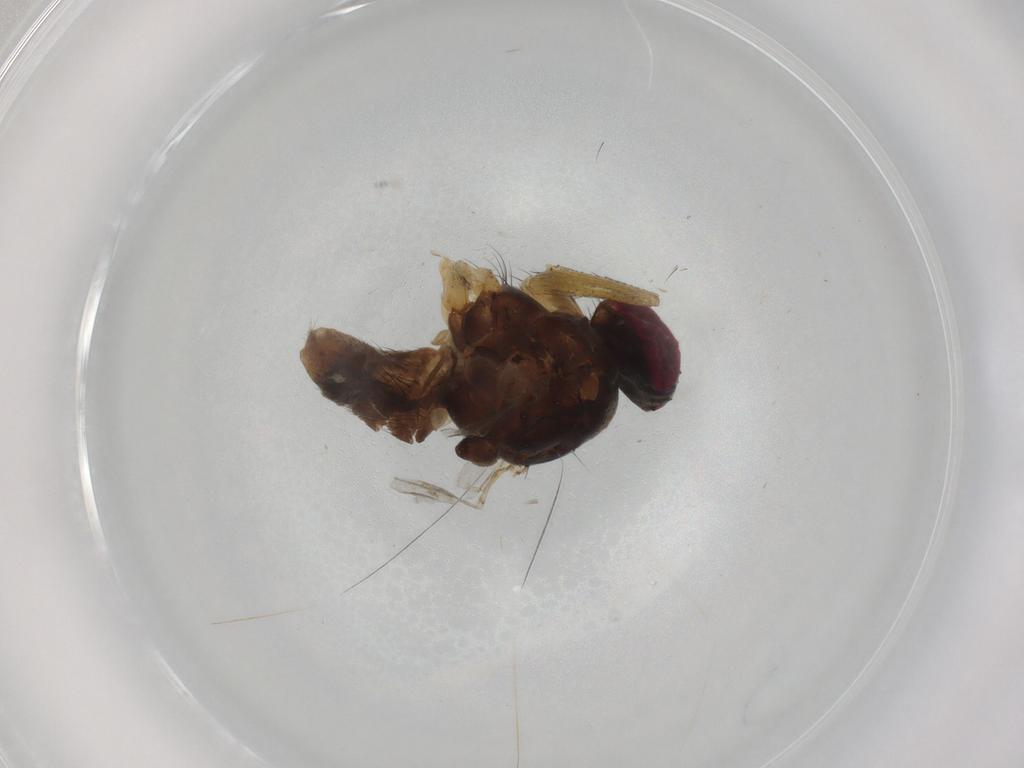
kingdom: Animalia
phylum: Arthropoda
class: Insecta
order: Diptera
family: Muscidae
